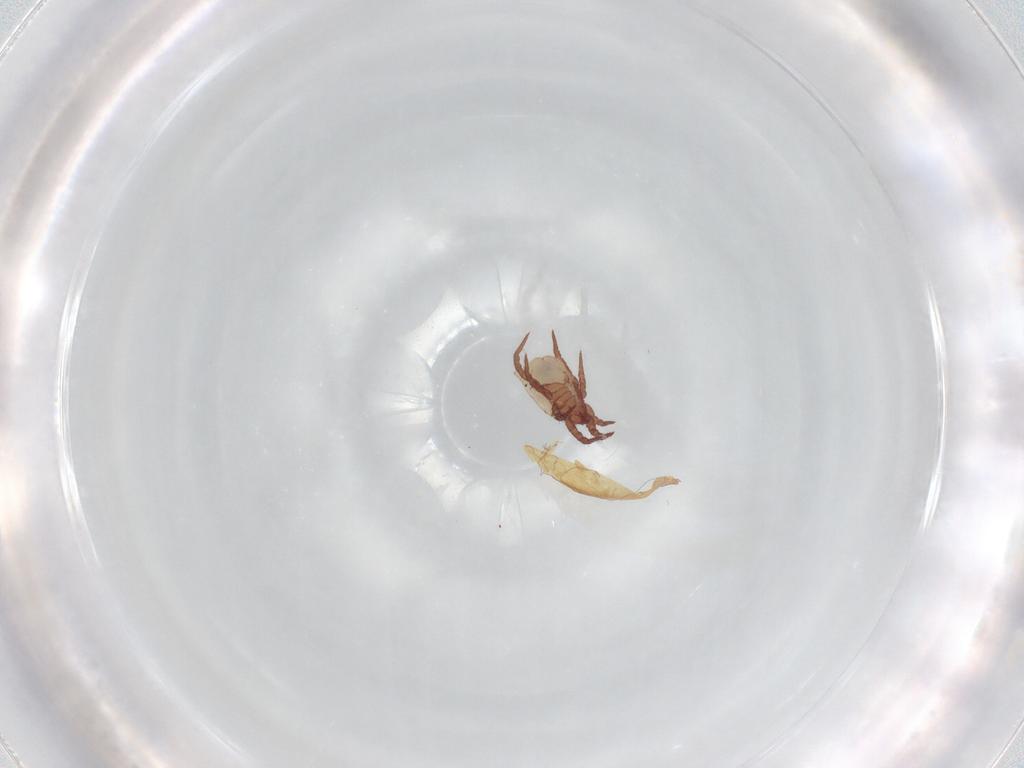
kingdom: Animalia
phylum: Arthropoda
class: Arachnida
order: Sarcoptiformes
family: Nothridae
